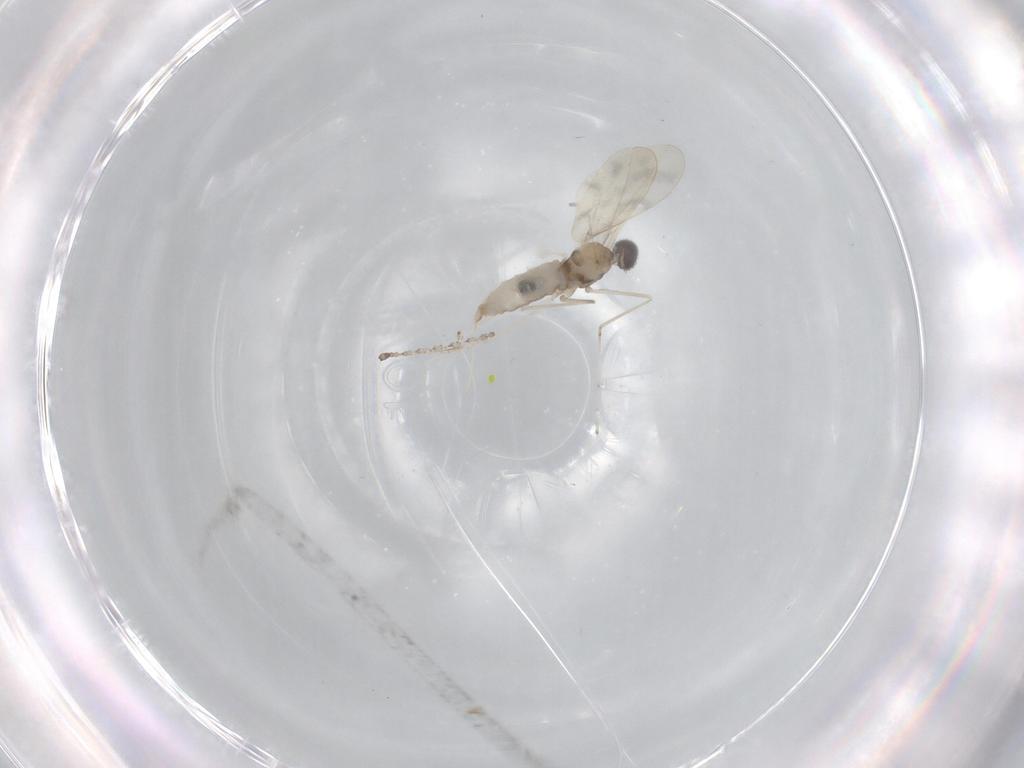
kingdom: Animalia
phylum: Arthropoda
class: Insecta
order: Diptera
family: Cecidomyiidae
